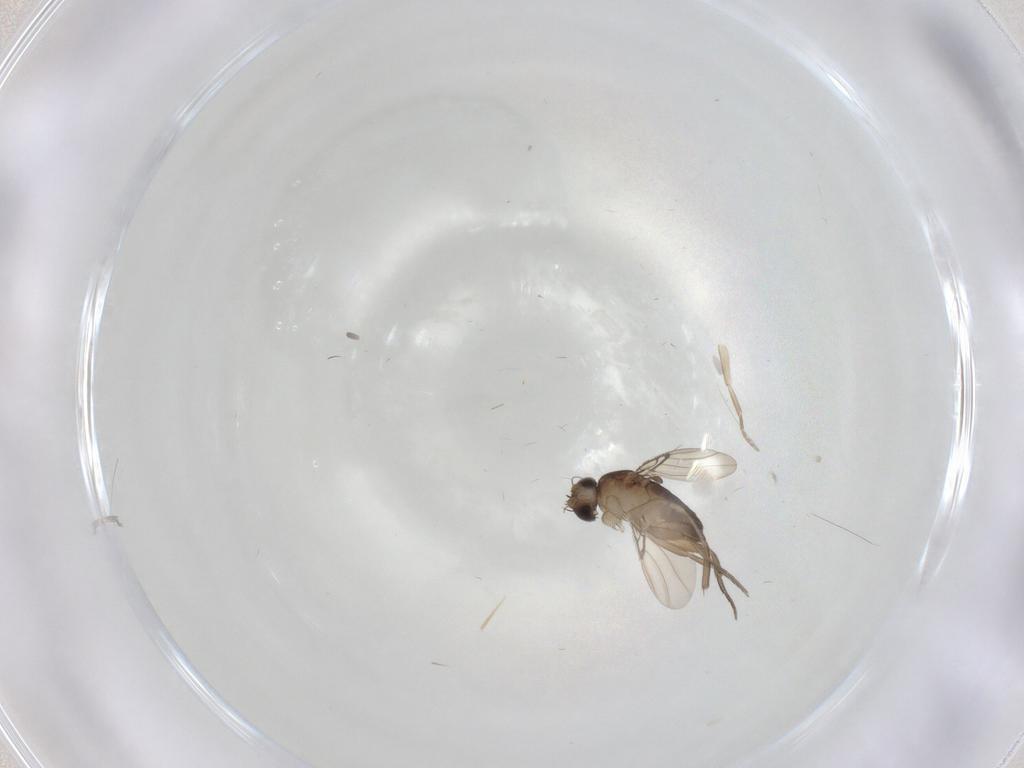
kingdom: Animalia
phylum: Arthropoda
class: Insecta
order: Diptera
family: Phoridae
